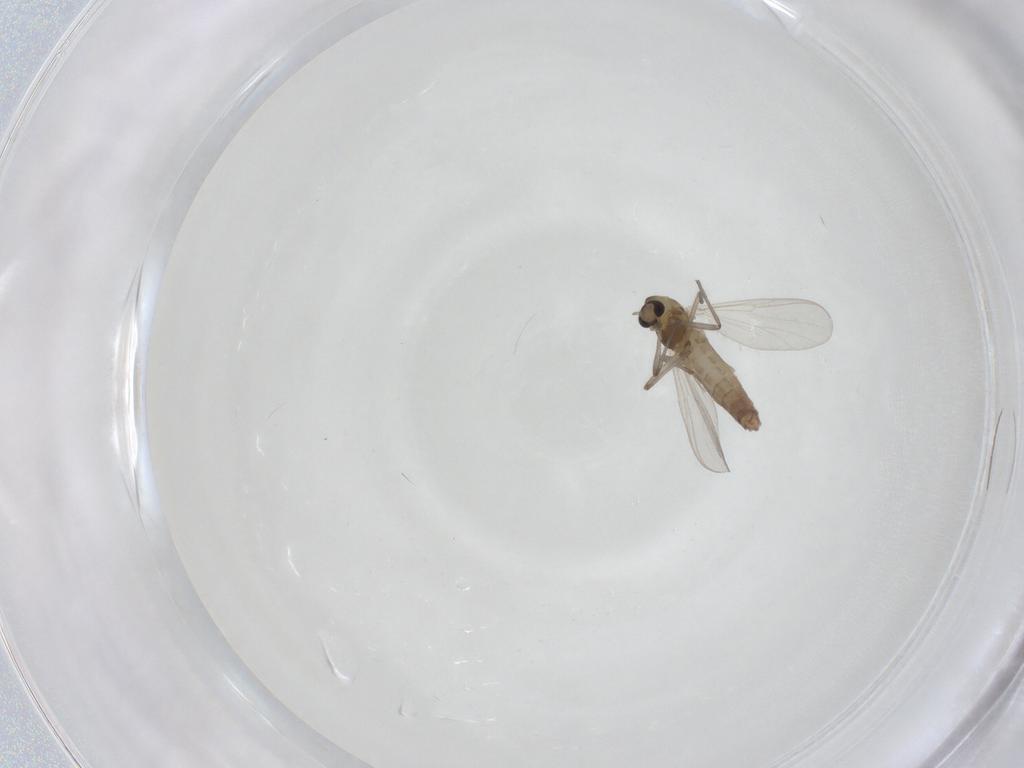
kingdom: Animalia
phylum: Arthropoda
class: Insecta
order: Diptera
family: Chironomidae
